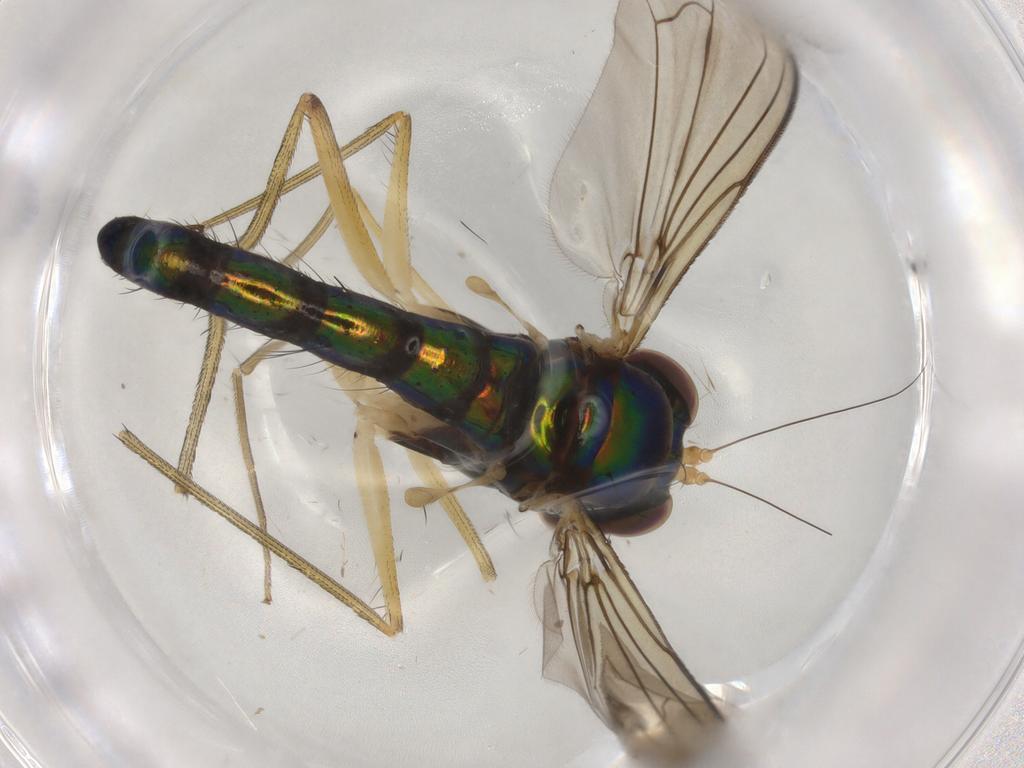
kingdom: Animalia
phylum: Arthropoda
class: Insecta
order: Diptera
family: Dolichopodidae
